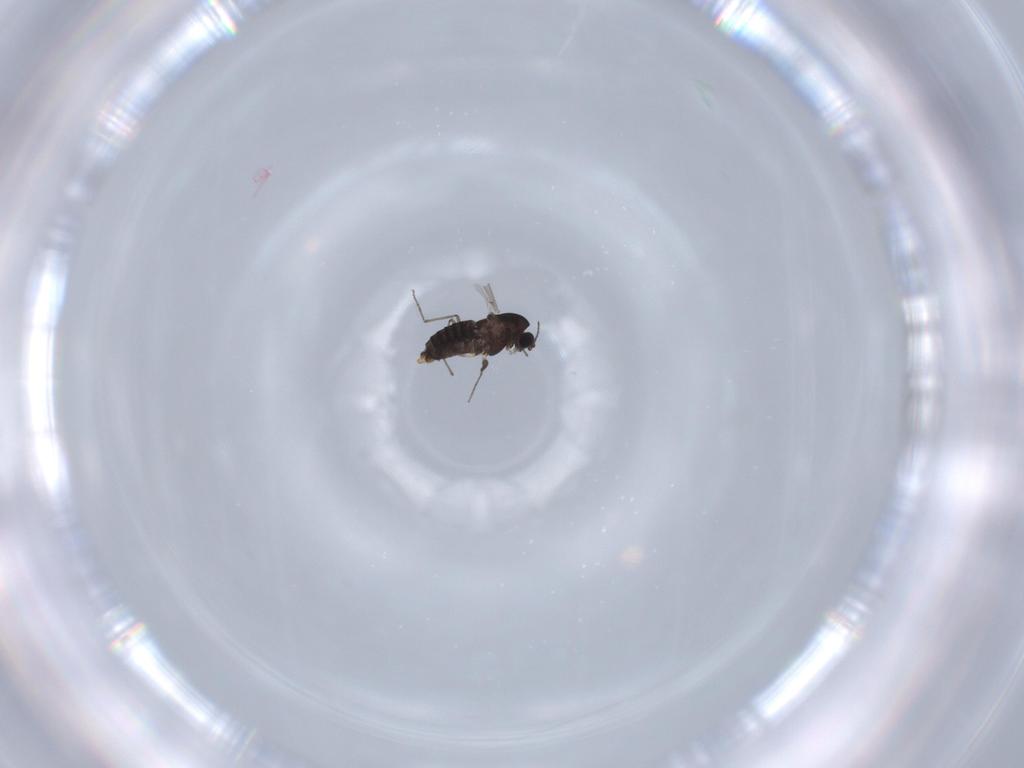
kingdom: Animalia
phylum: Arthropoda
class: Insecta
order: Diptera
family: Chironomidae
